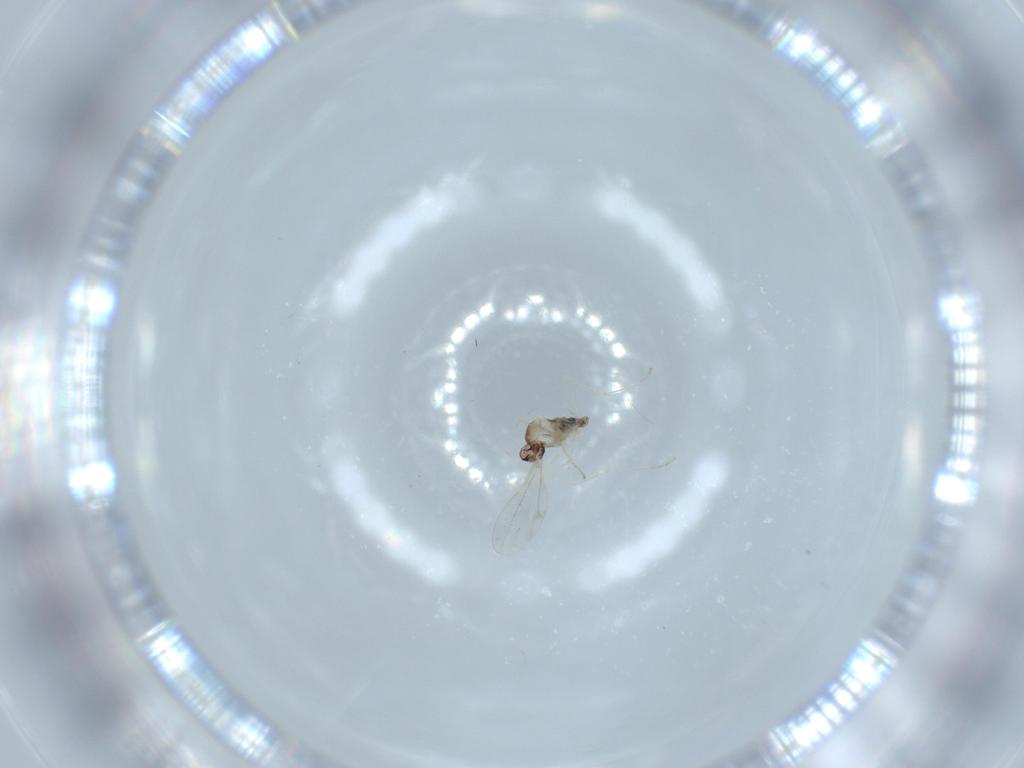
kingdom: Animalia
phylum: Arthropoda
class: Insecta
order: Diptera
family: Cecidomyiidae
